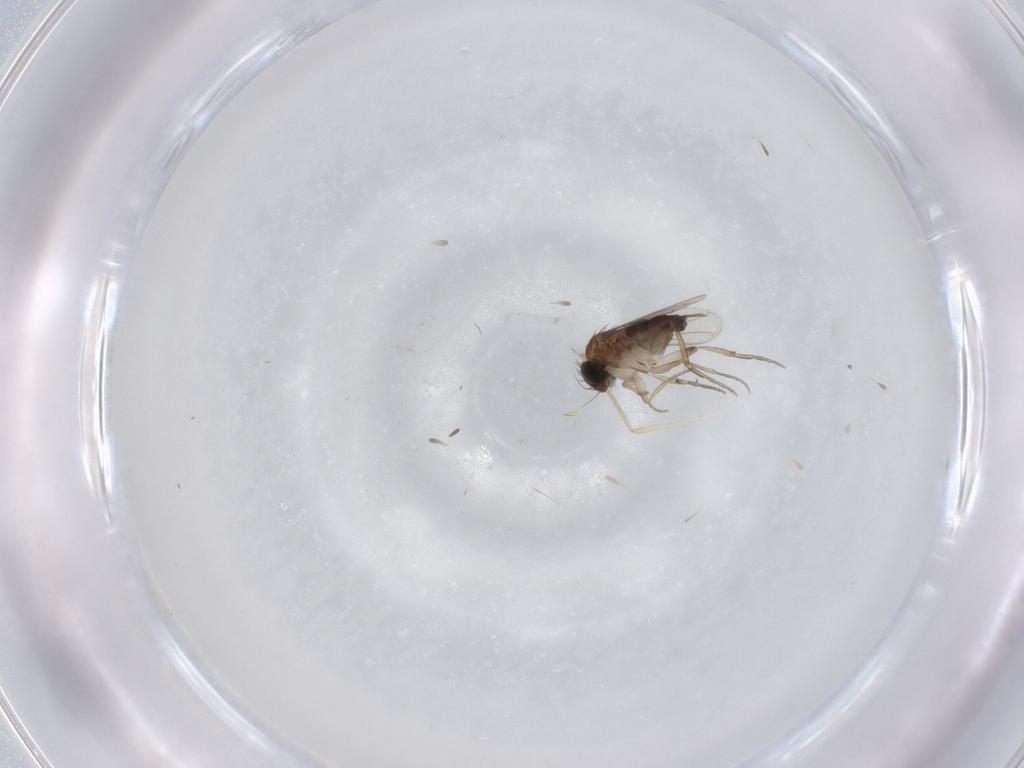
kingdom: Animalia
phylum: Arthropoda
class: Insecta
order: Diptera
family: Phoridae
